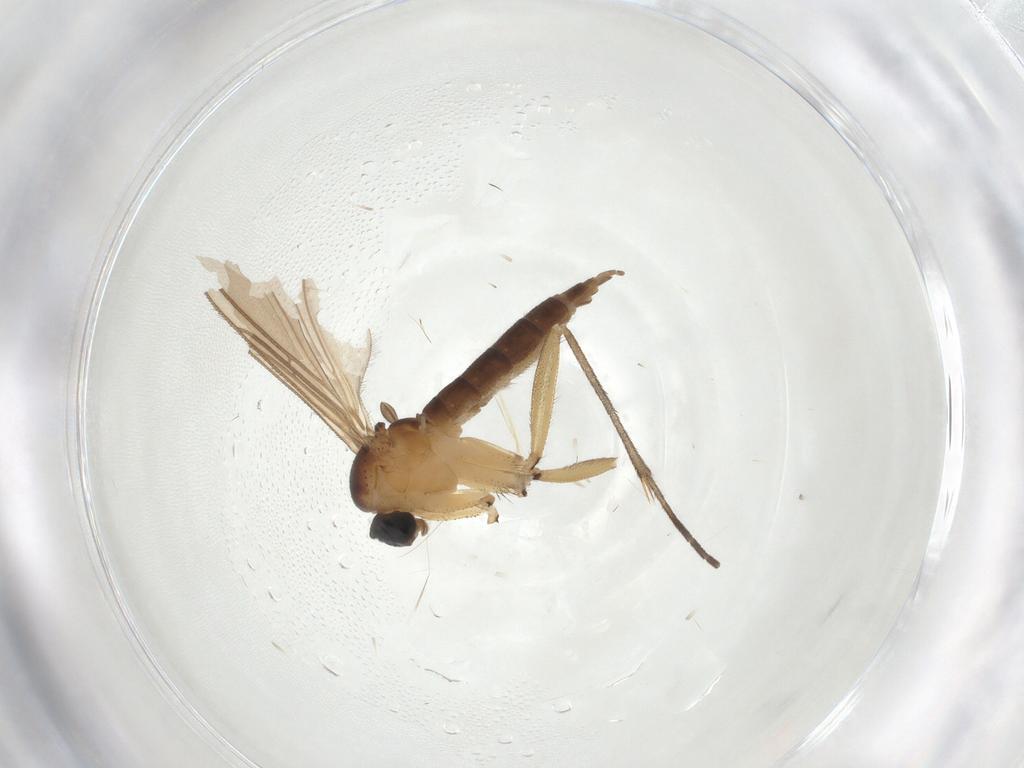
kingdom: Animalia
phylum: Arthropoda
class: Insecta
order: Diptera
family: Sciaridae
